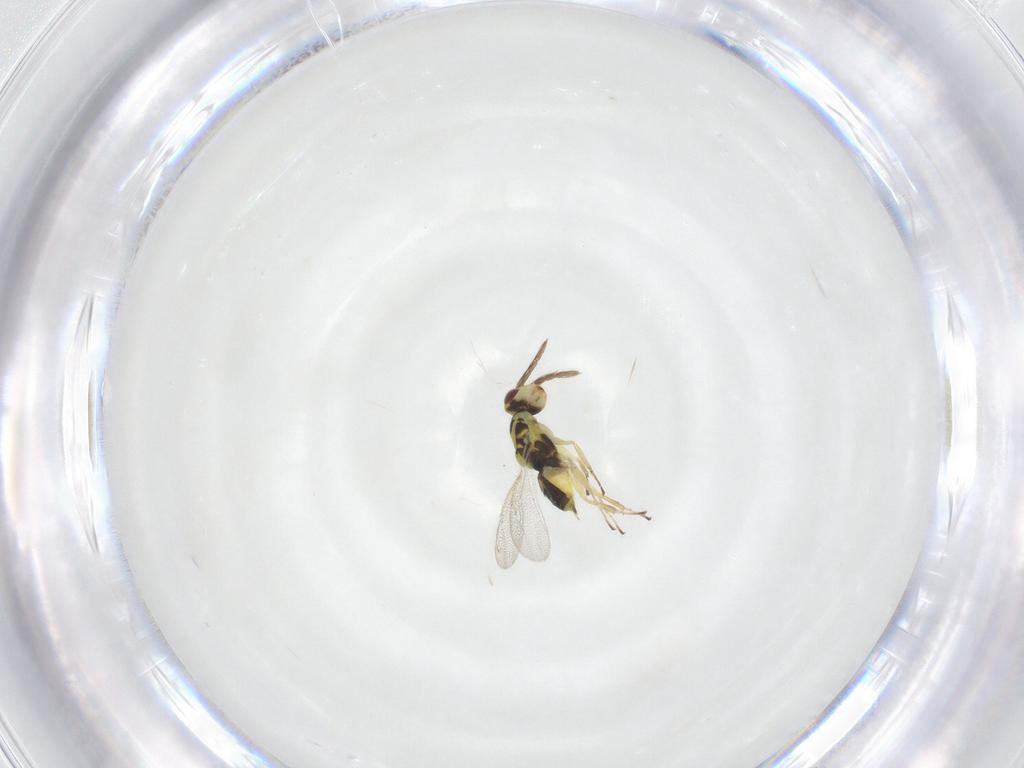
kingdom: Animalia
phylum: Arthropoda
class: Insecta
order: Hymenoptera
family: Eulophidae
